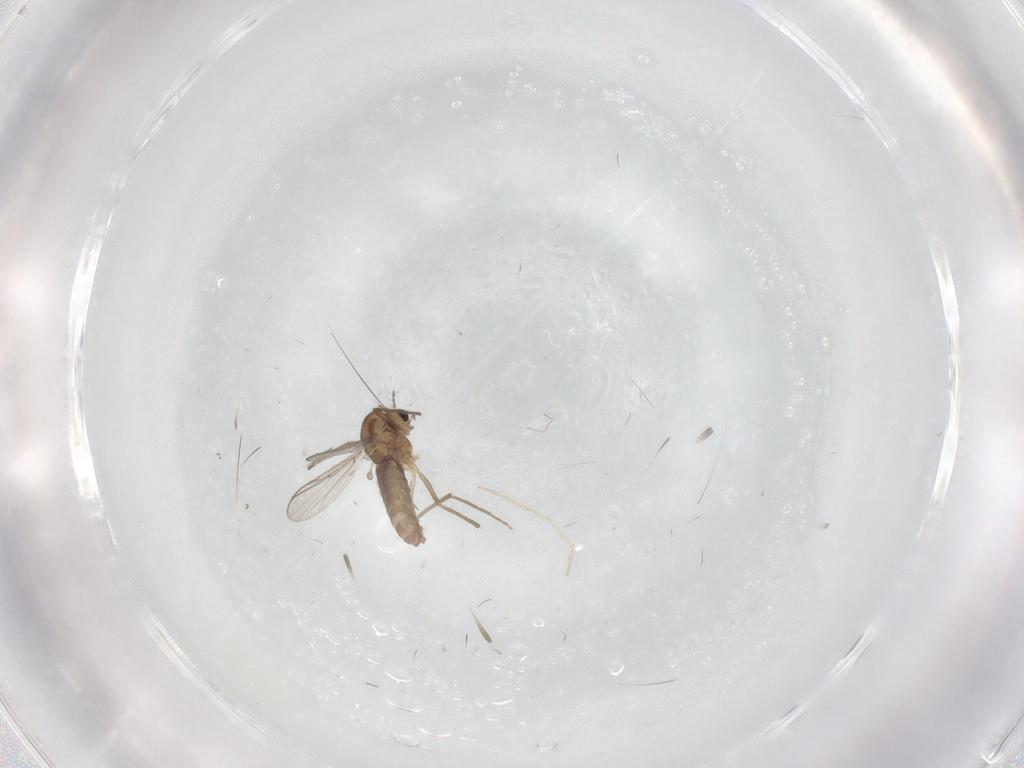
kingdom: Animalia
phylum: Arthropoda
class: Insecta
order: Diptera
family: Chironomidae
